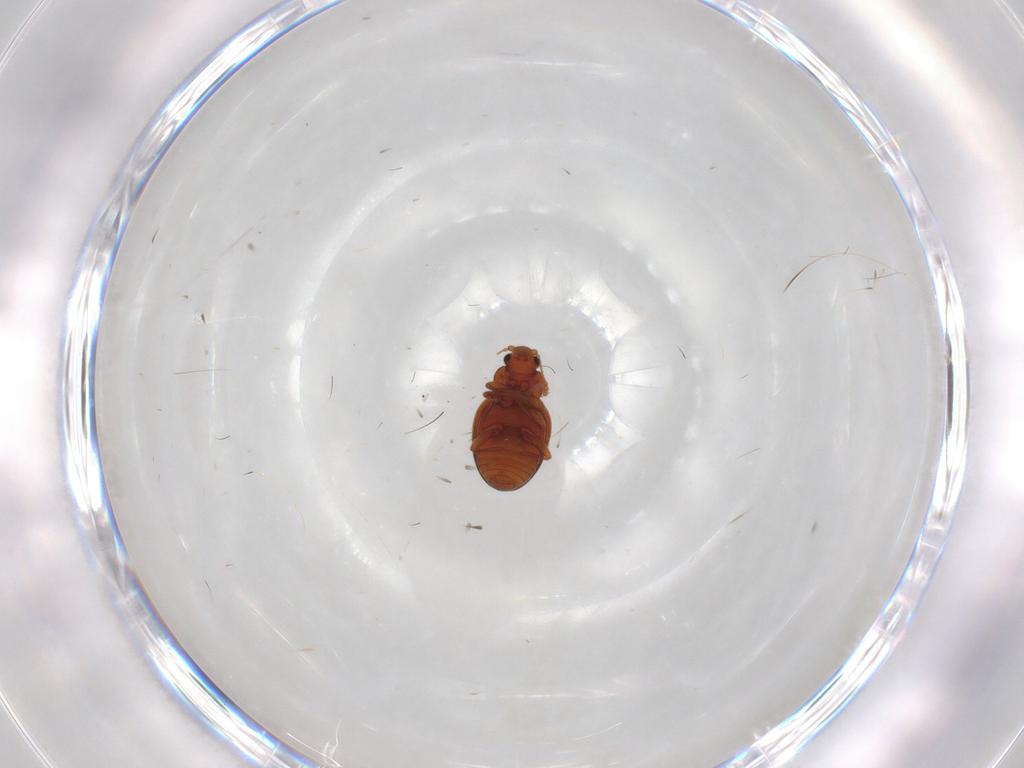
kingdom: Animalia
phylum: Arthropoda
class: Insecta
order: Coleoptera
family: Latridiidae
